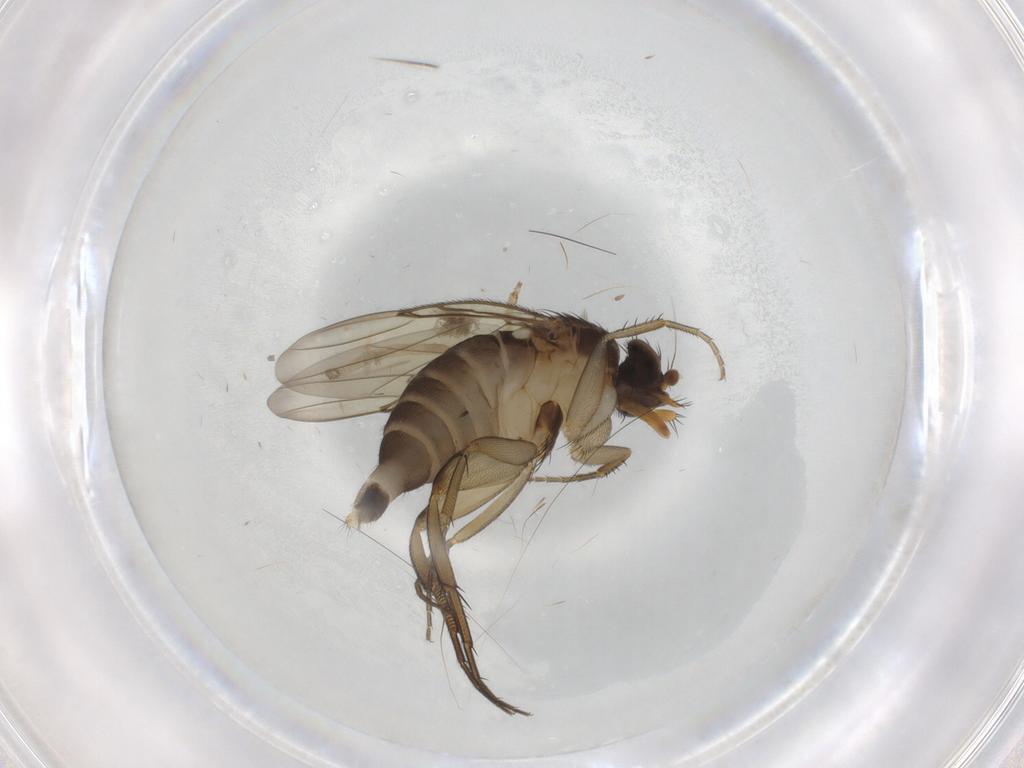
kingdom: Animalia
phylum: Arthropoda
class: Insecta
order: Diptera
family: Phoridae
